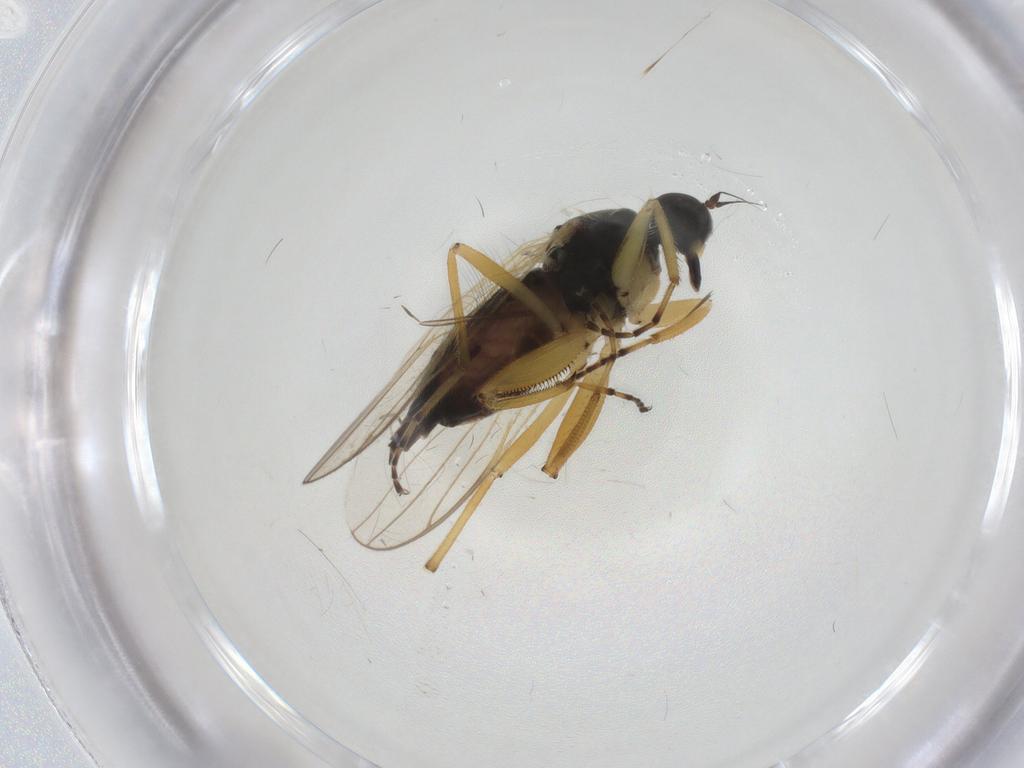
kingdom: Animalia
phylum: Arthropoda
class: Insecta
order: Diptera
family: Hybotidae
